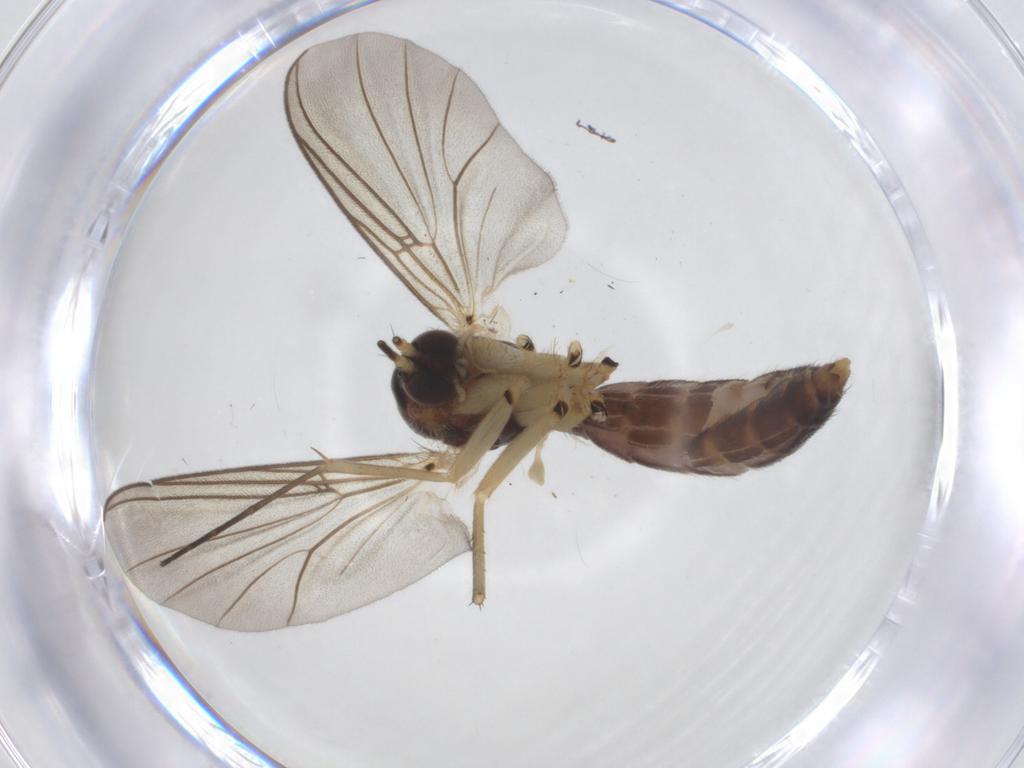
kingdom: Animalia
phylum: Arthropoda
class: Insecta
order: Diptera
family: Mycetophilidae
